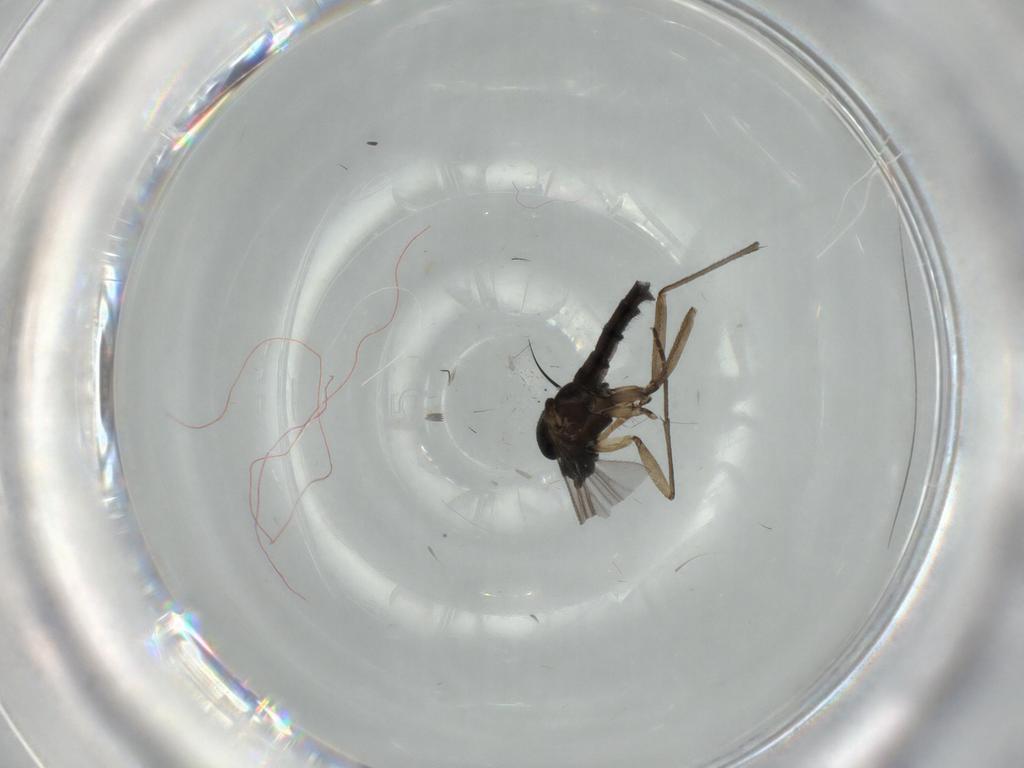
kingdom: Animalia
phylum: Arthropoda
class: Insecta
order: Diptera
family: Sciaridae
